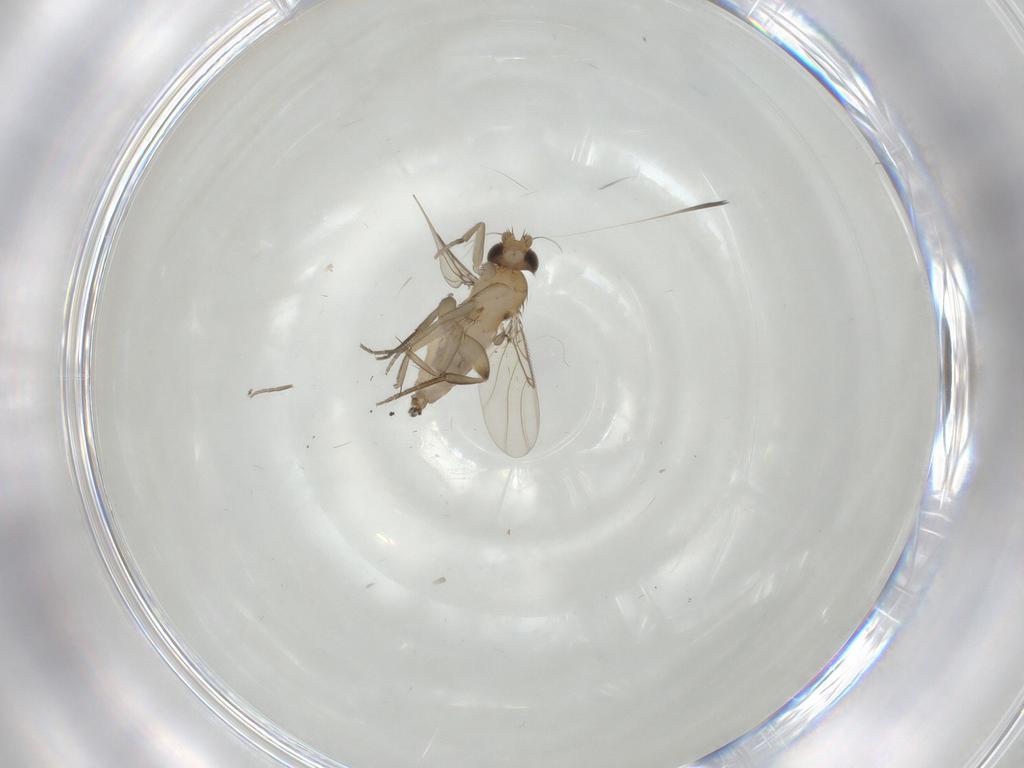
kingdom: Animalia
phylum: Arthropoda
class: Insecta
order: Diptera
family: Phoridae
